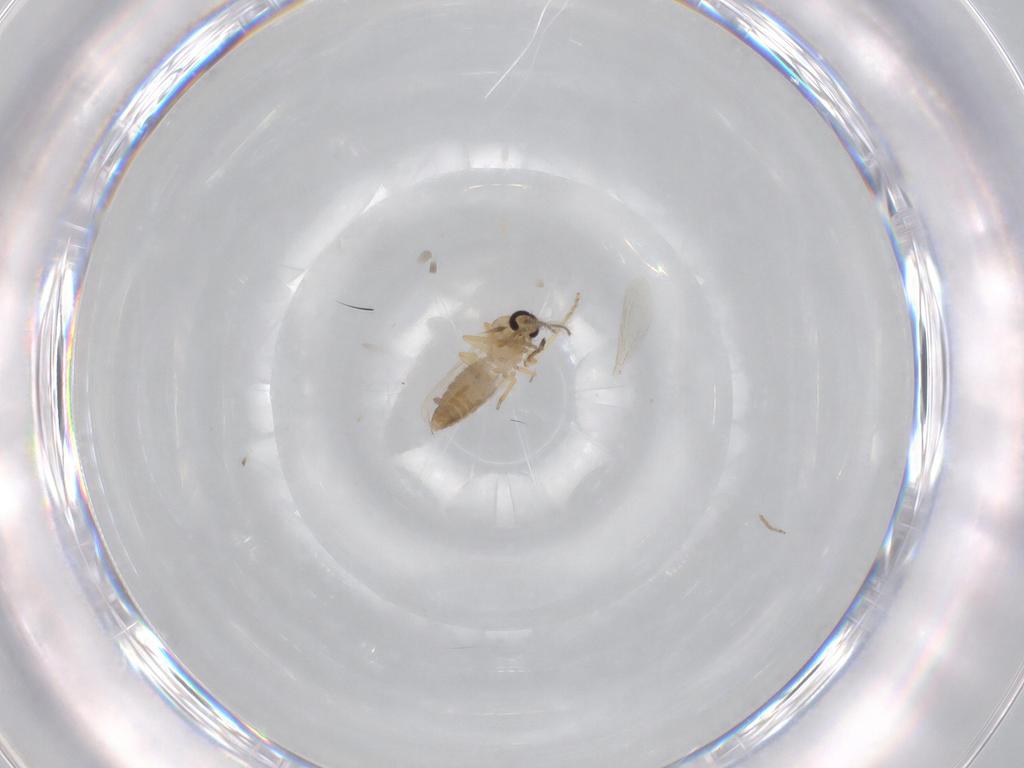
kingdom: Animalia
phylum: Arthropoda
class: Insecta
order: Diptera
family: Ceratopogonidae
